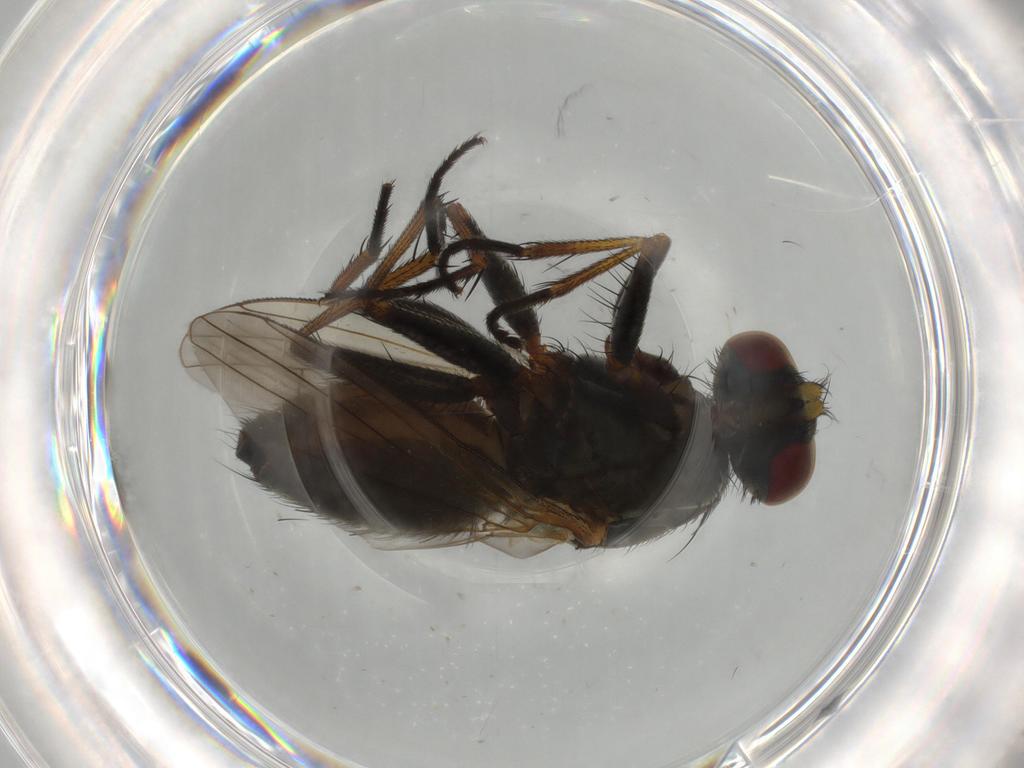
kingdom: Animalia
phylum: Arthropoda
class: Insecta
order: Diptera
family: Muscidae
